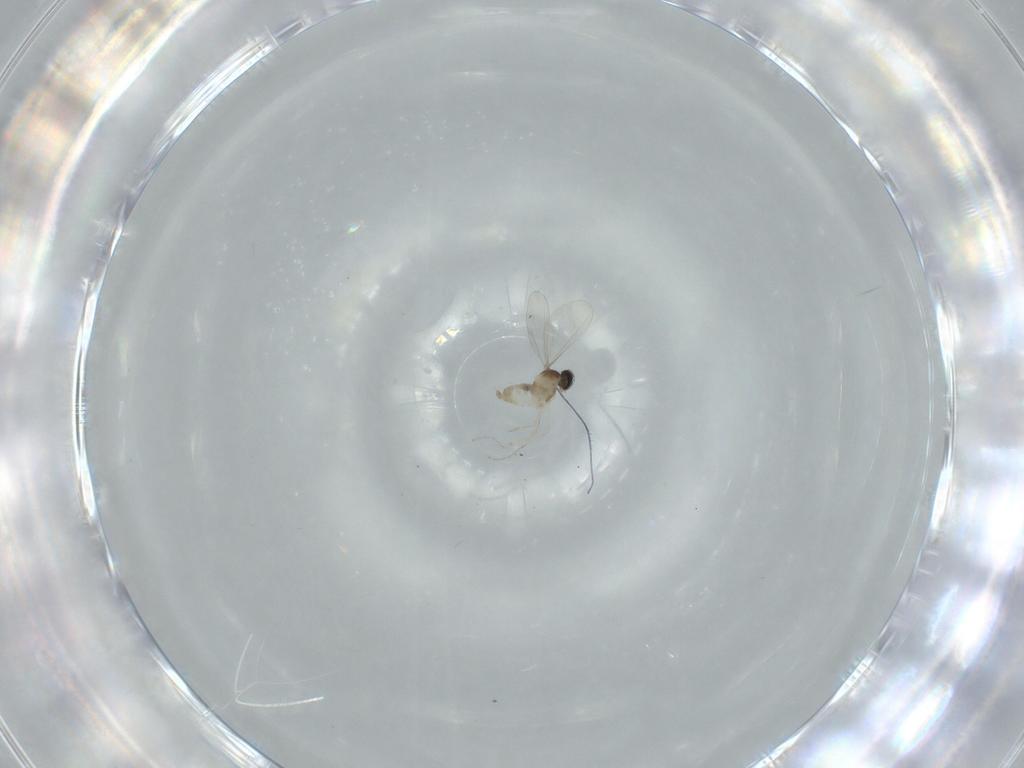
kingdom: Animalia
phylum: Arthropoda
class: Insecta
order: Diptera
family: Cecidomyiidae
